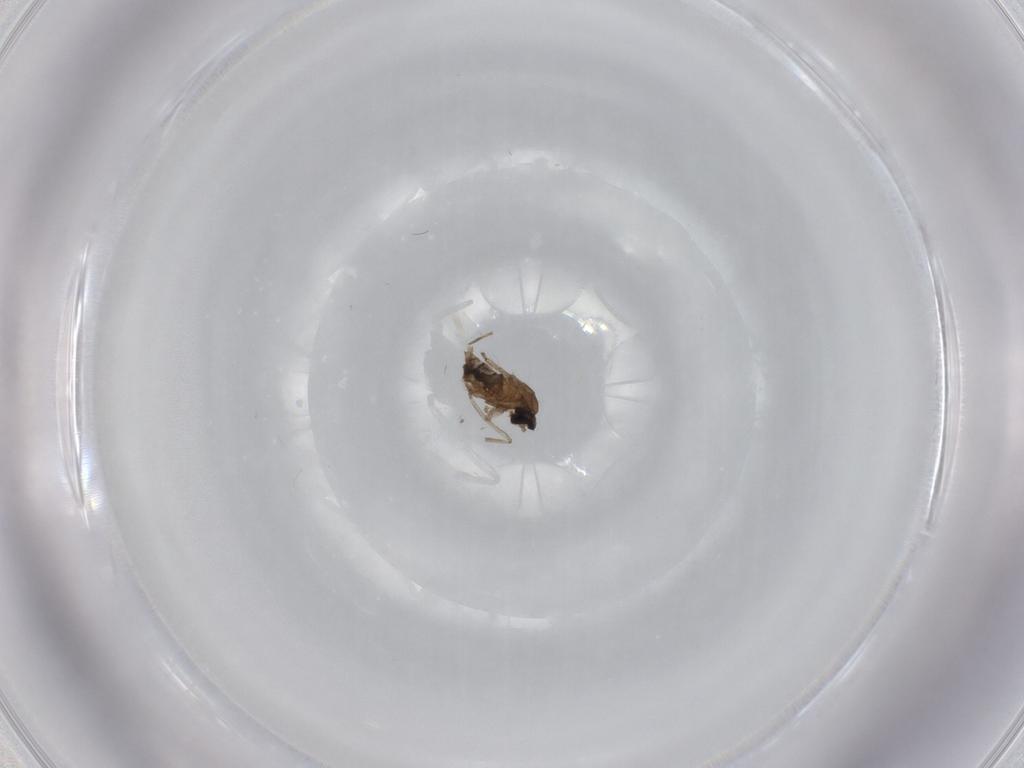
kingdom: Animalia
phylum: Arthropoda
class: Insecta
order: Diptera
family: Cecidomyiidae
